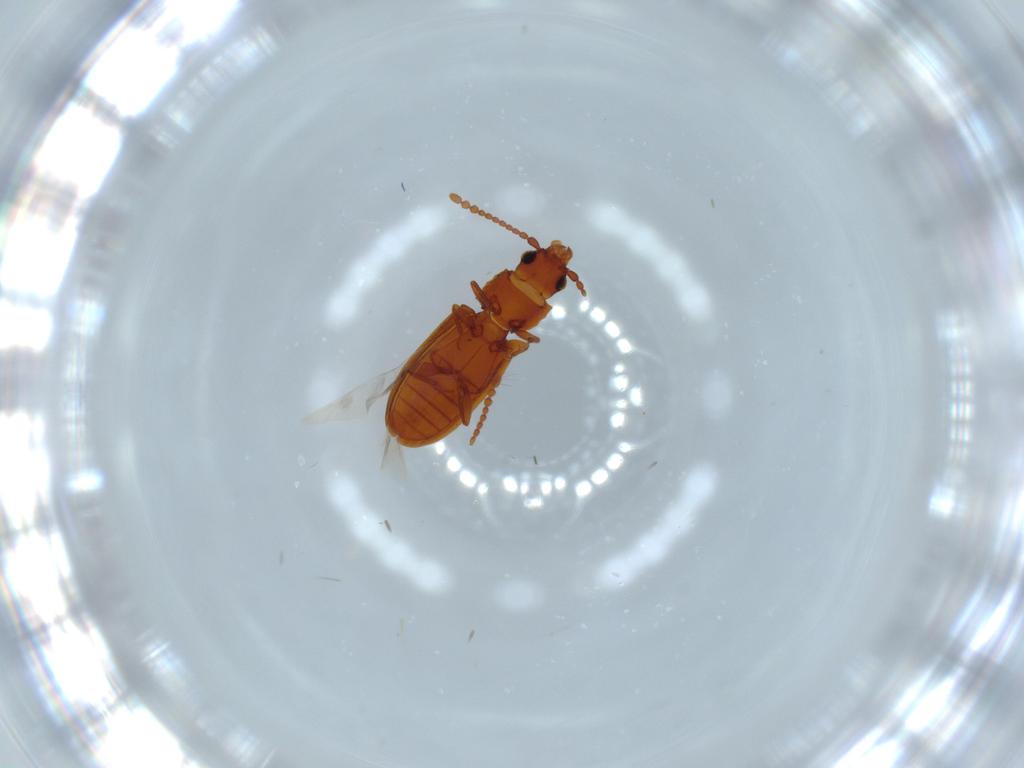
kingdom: Animalia
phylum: Arthropoda
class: Insecta
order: Coleoptera
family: Laemophloeidae
